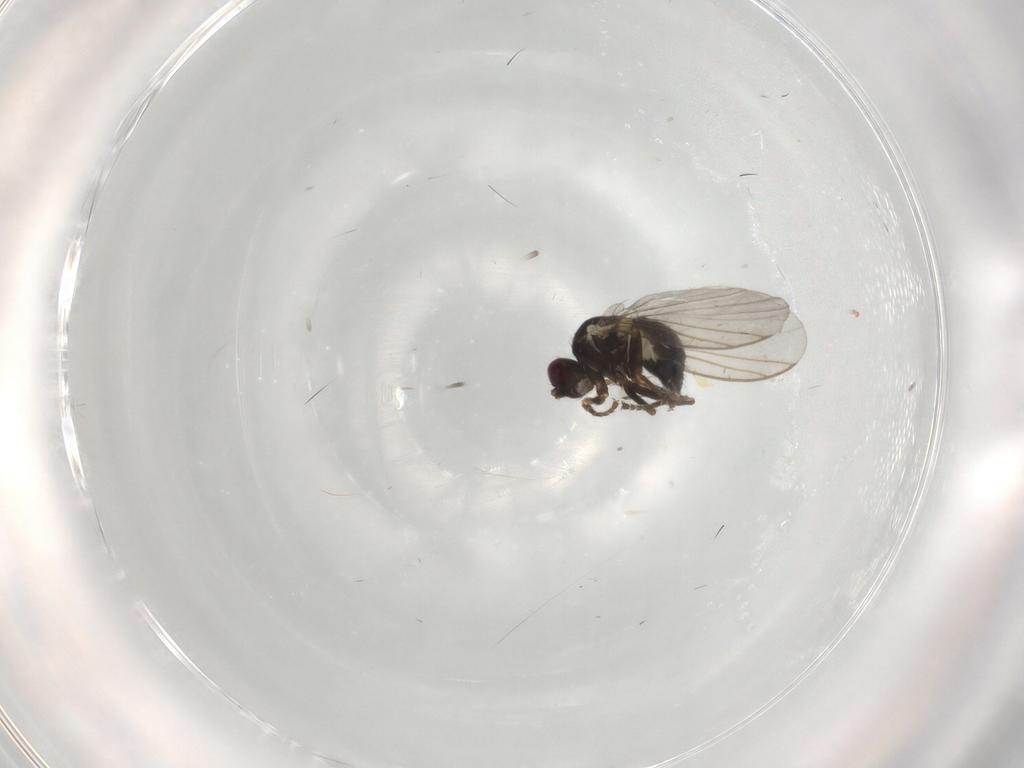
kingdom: Animalia
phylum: Arthropoda
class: Insecta
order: Diptera
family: Agromyzidae
